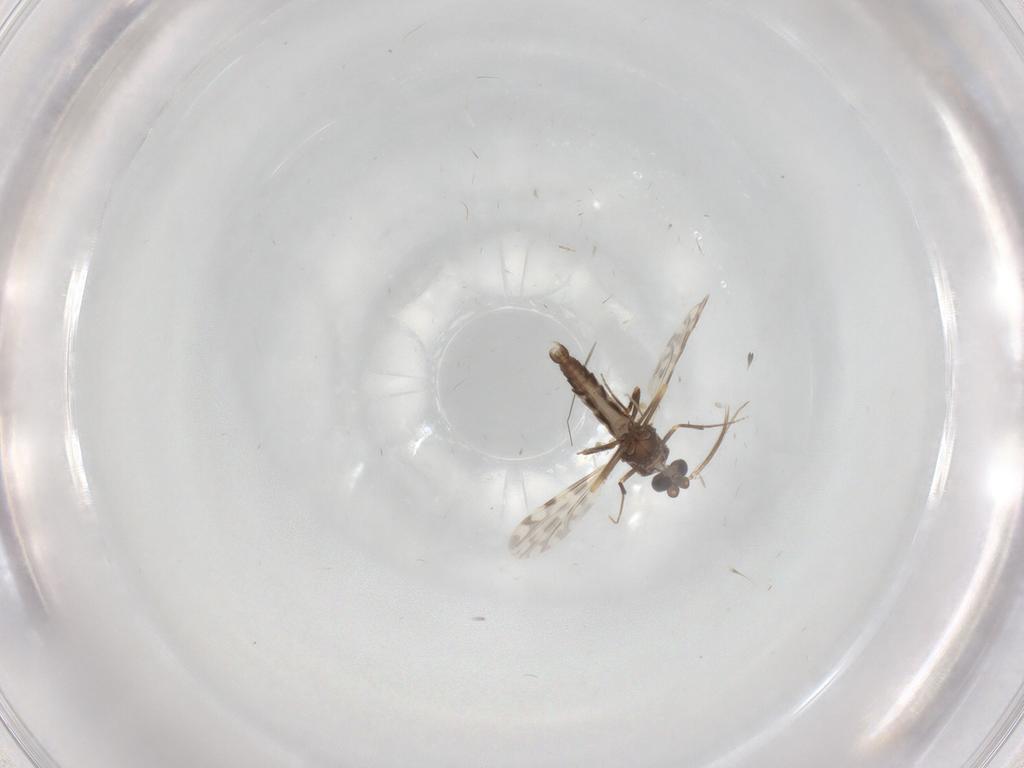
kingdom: Animalia
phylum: Arthropoda
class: Insecta
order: Diptera
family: Ceratopogonidae
